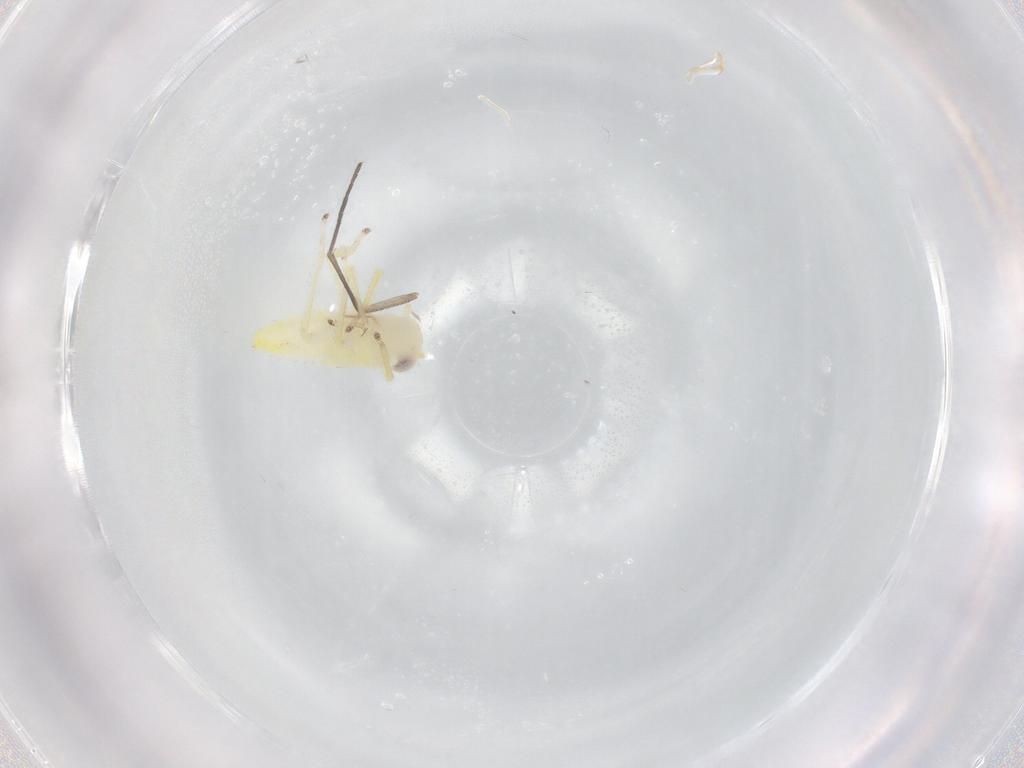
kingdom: Animalia
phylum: Arthropoda
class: Insecta
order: Hemiptera
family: Cicadellidae
